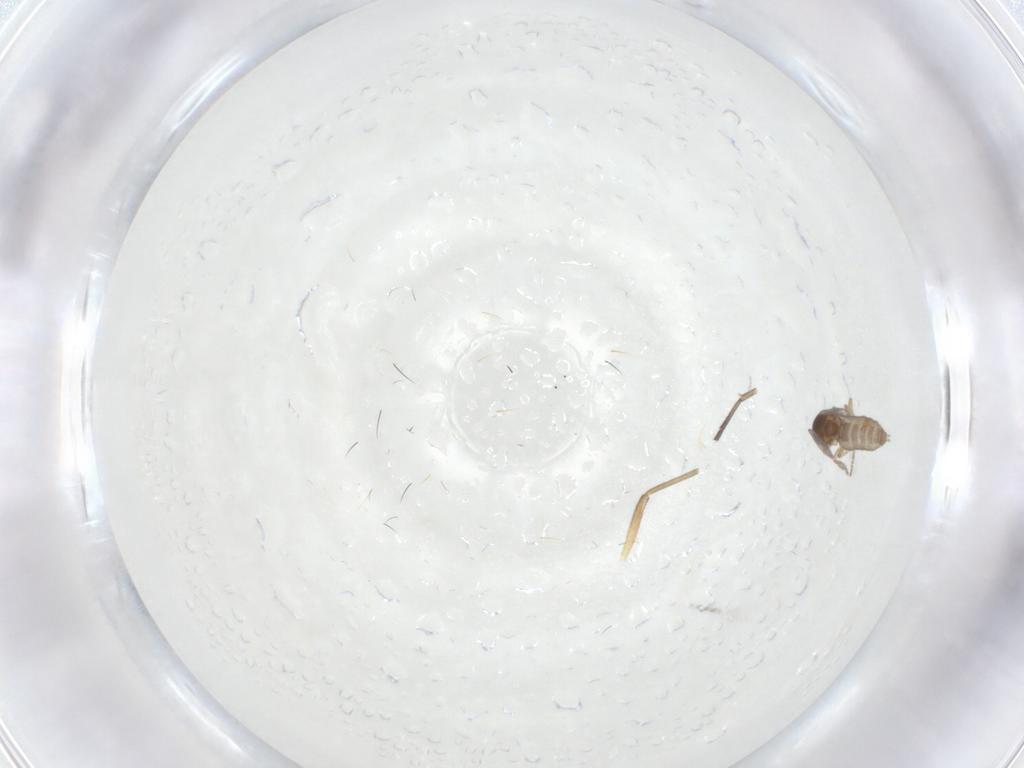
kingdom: Animalia
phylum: Arthropoda
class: Insecta
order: Diptera
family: Ceratopogonidae
